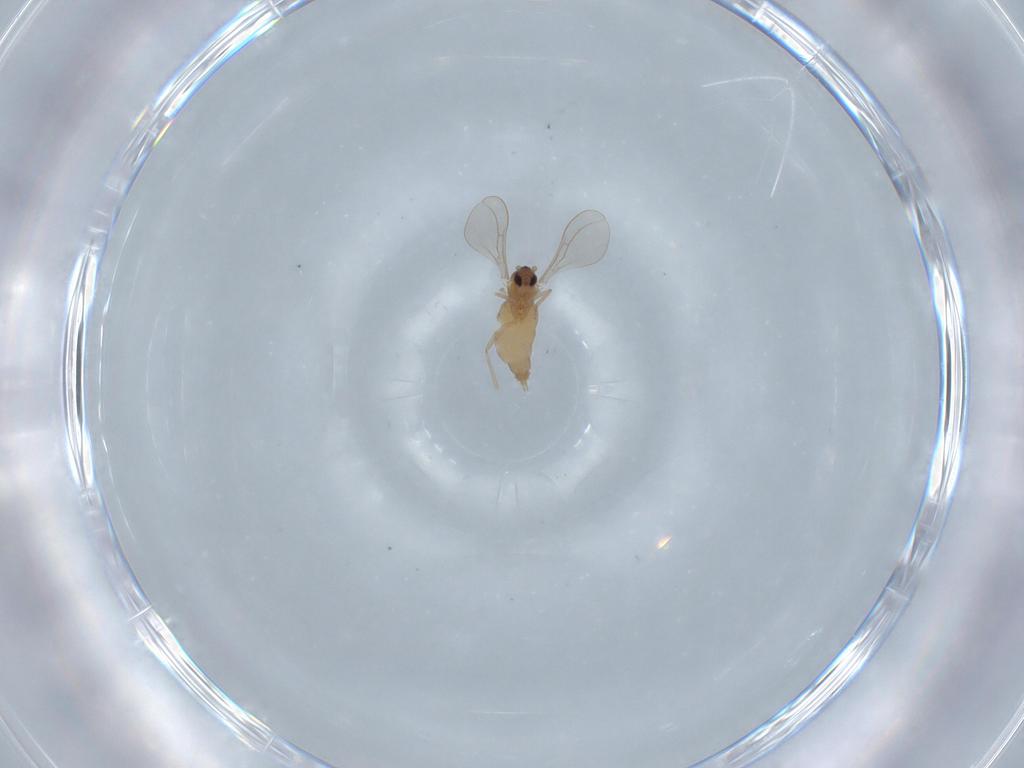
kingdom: Animalia
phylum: Arthropoda
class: Insecta
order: Diptera
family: Cecidomyiidae
